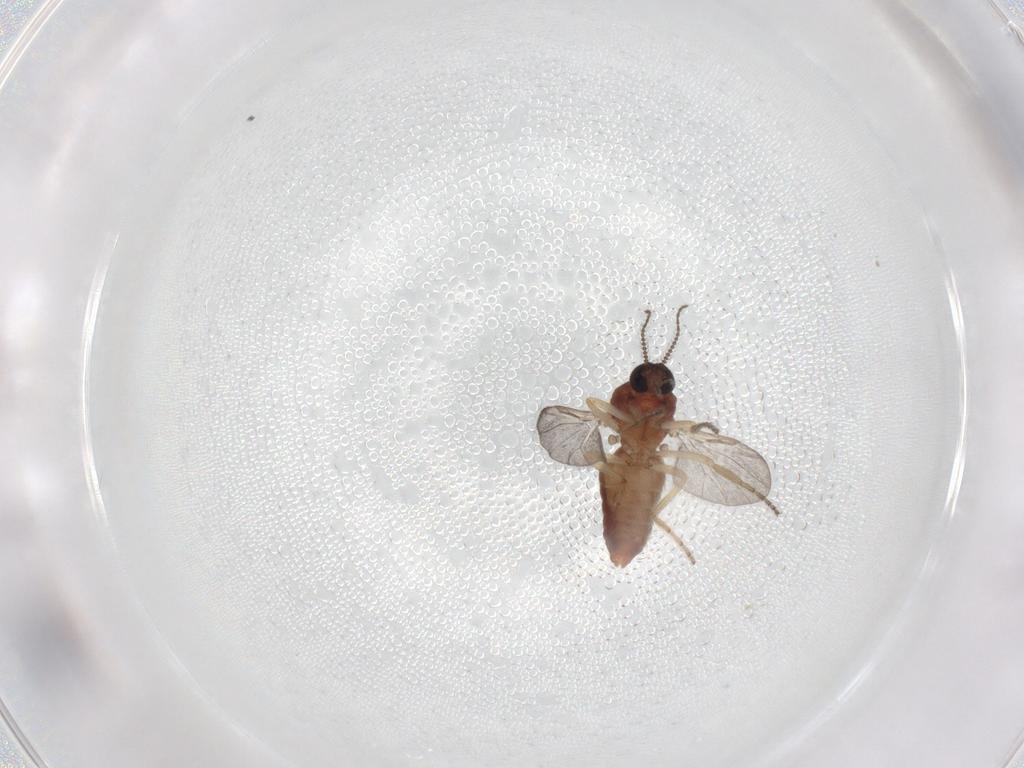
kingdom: Animalia
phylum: Arthropoda
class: Insecta
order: Diptera
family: Ceratopogonidae
